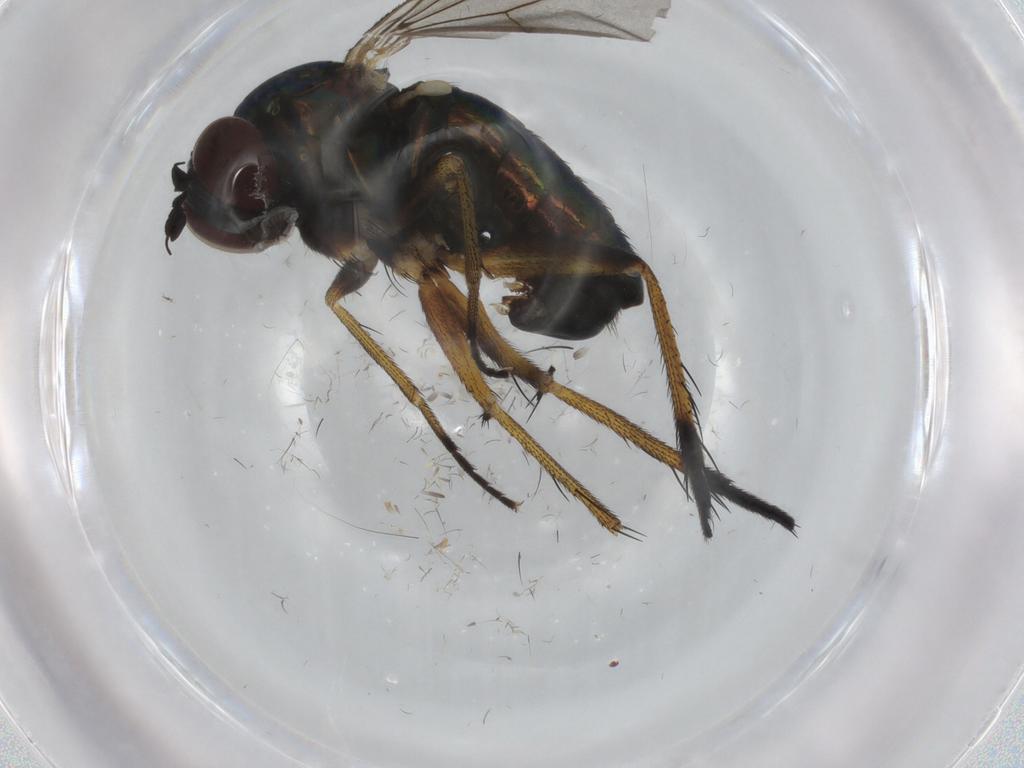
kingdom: Animalia
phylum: Arthropoda
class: Insecta
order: Diptera
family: Dolichopodidae
